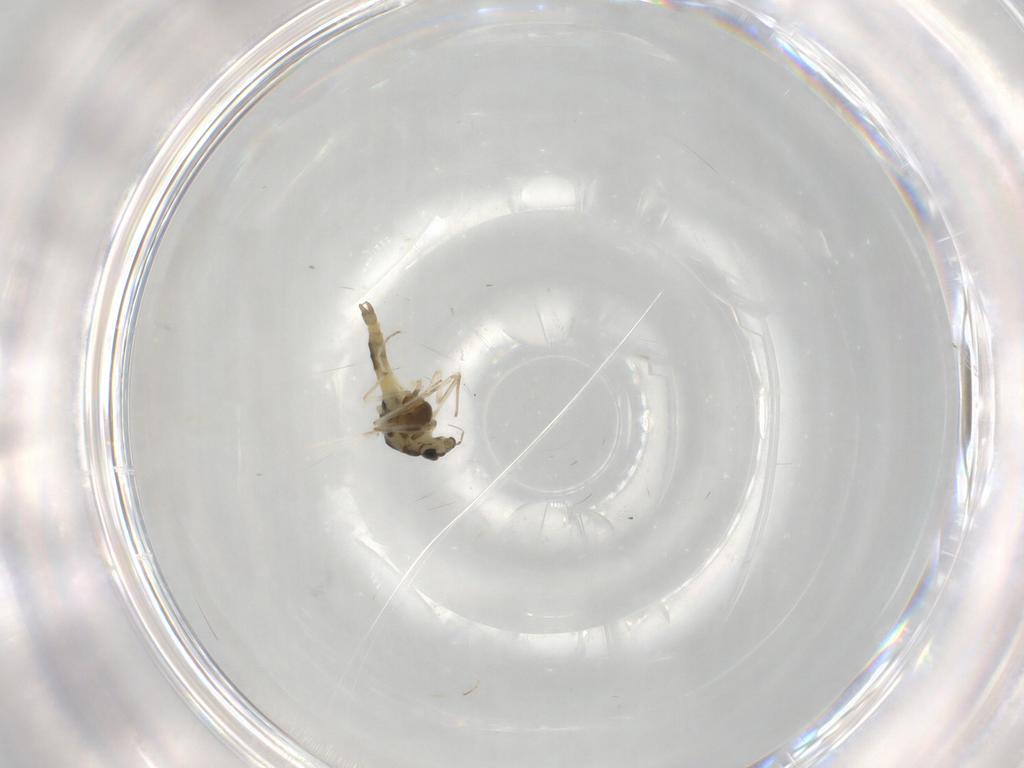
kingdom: Animalia
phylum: Arthropoda
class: Insecta
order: Diptera
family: Chironomidae
